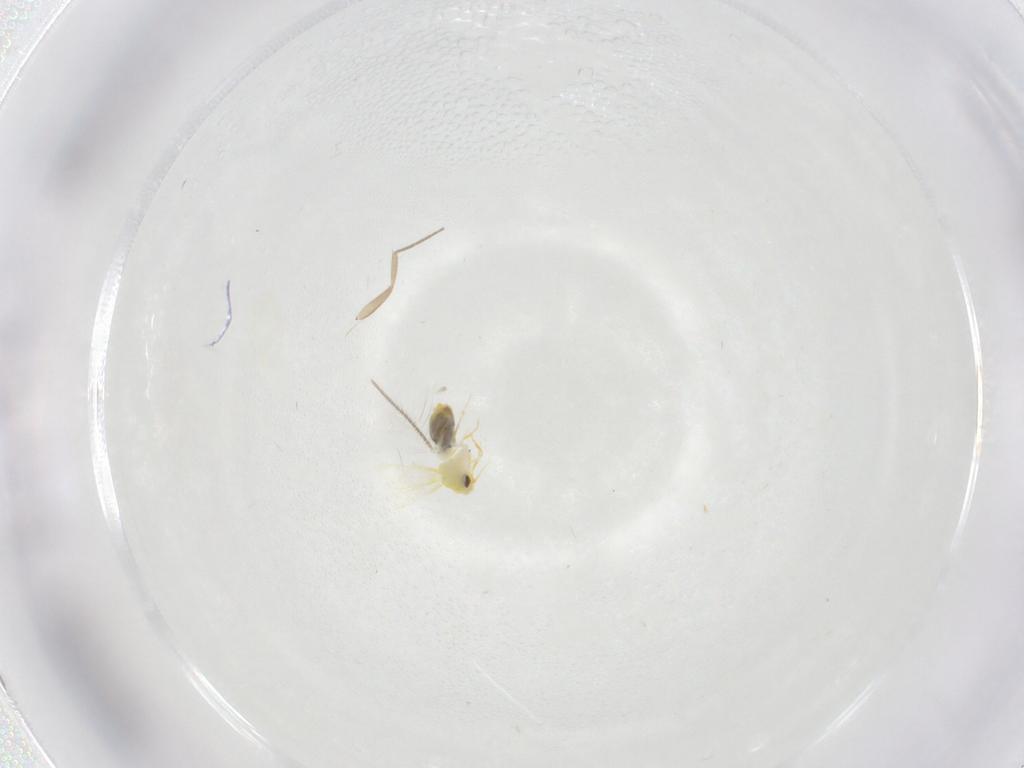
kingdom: Animalia
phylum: Arthropoda
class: Insecta
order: Hemiptera
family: Aleyrodidae
